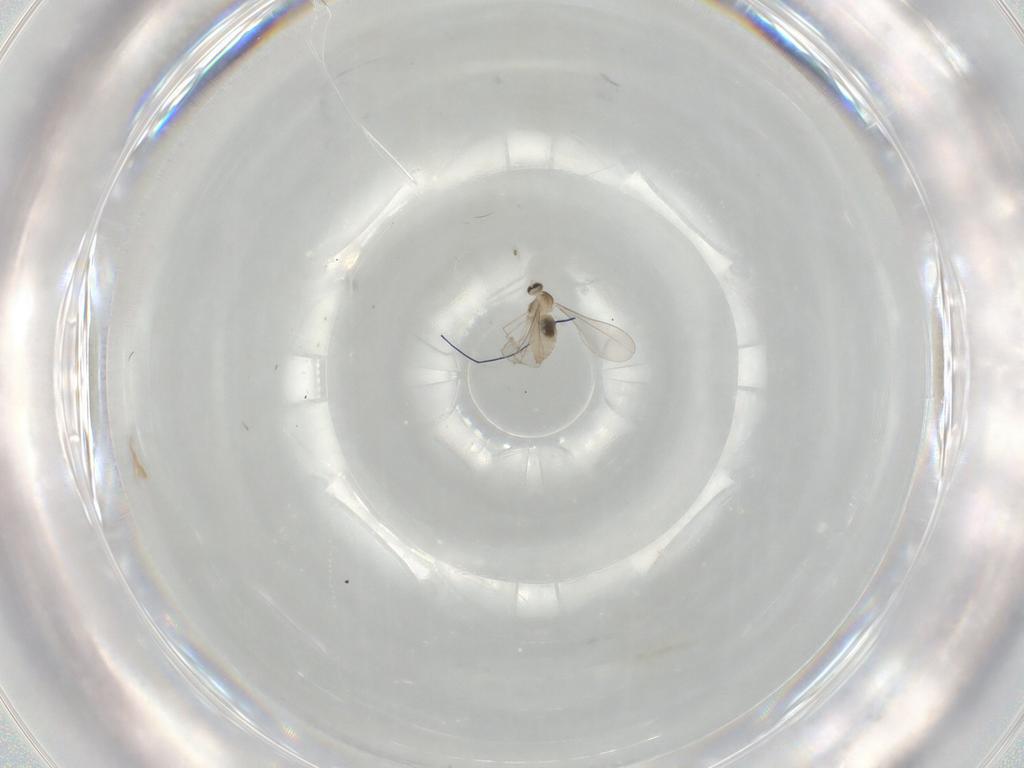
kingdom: Animalia
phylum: Arthropoda
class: Insecta
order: Diptera
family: Cecidomyiidae
